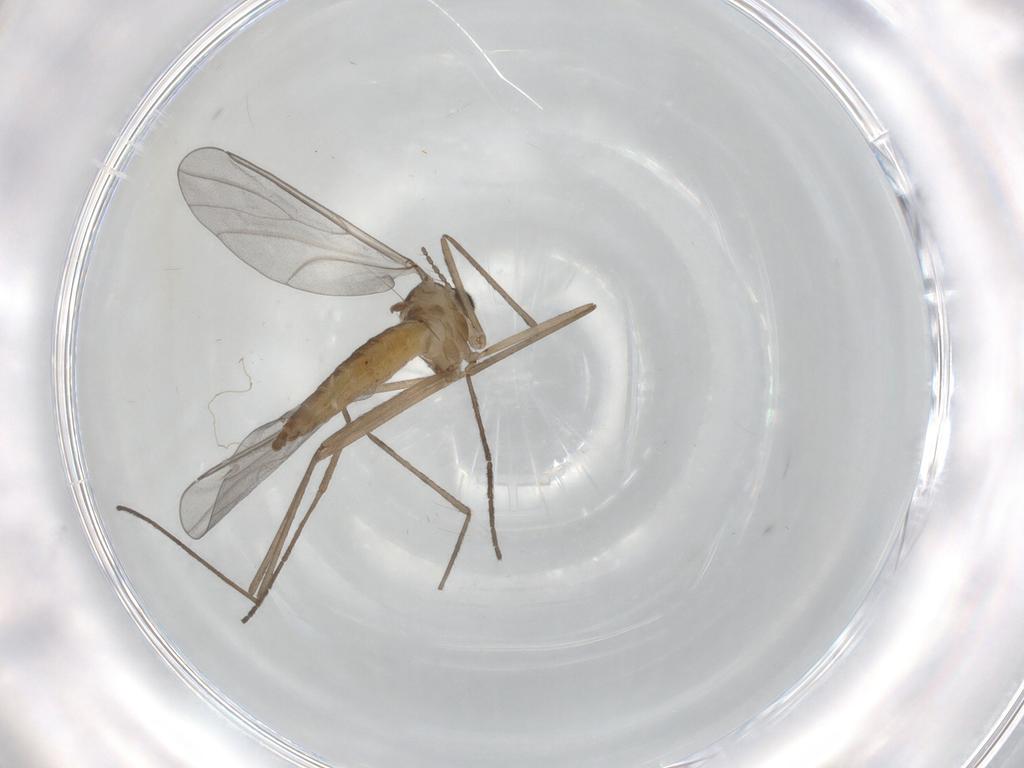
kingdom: Animalia
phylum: Arthropoda
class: Insecta
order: Diptera
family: Cecidomyiidae
